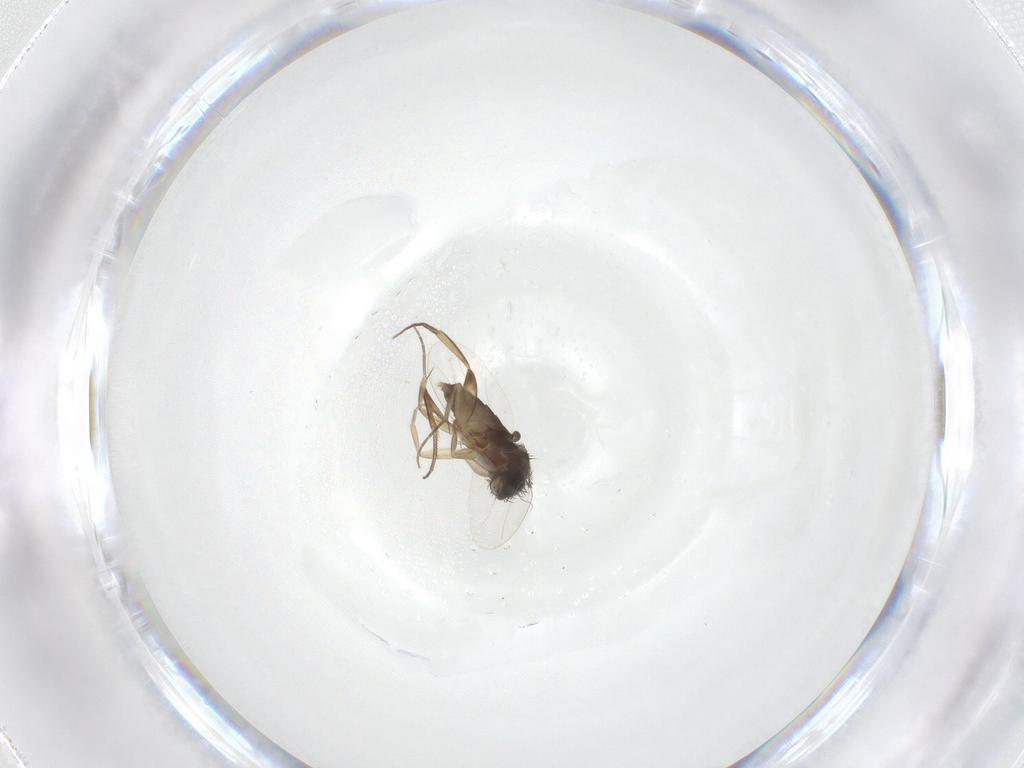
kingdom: Animalia
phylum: Arthropoda
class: Insecta
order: Diptera
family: Phoridae
